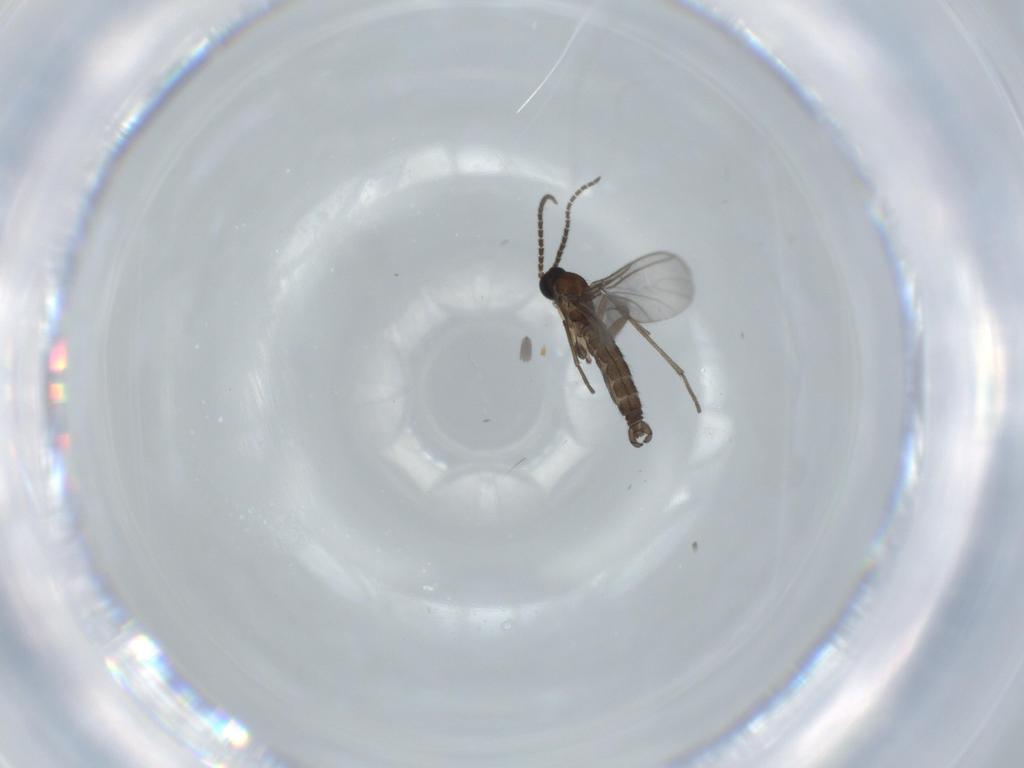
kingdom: Animalia
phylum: Arthropoda
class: Insecta
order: Diptera
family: Sciaridae
